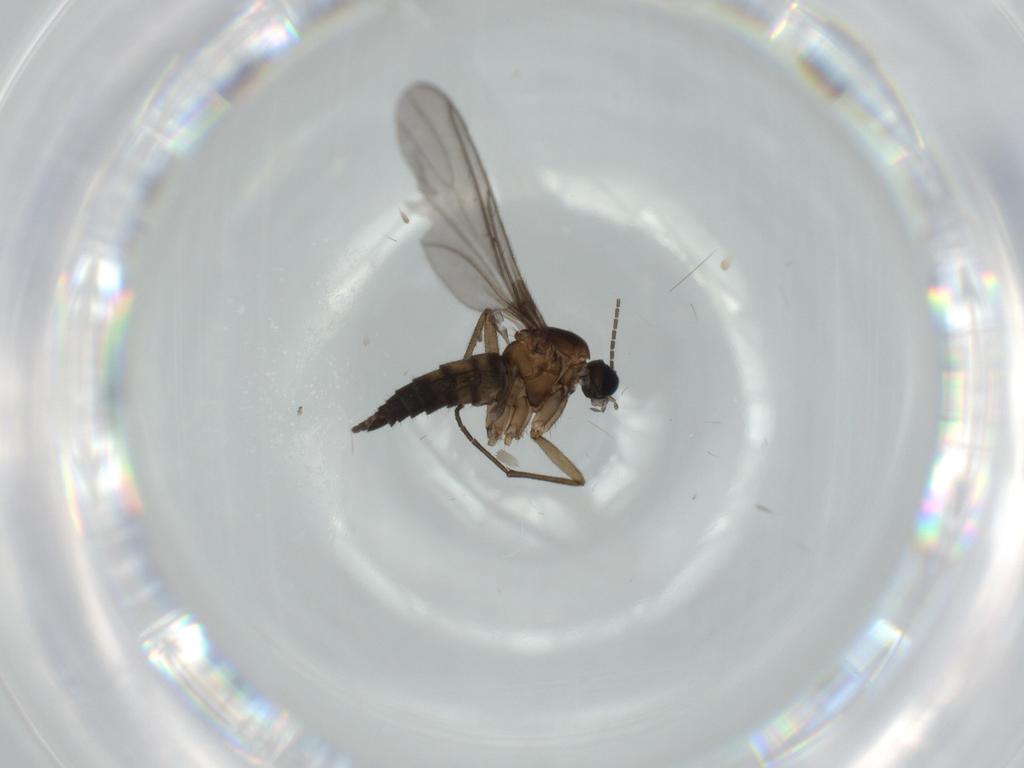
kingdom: Animalia
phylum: Arthropoda
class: Insecta
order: Diptera
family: Sciaridae
